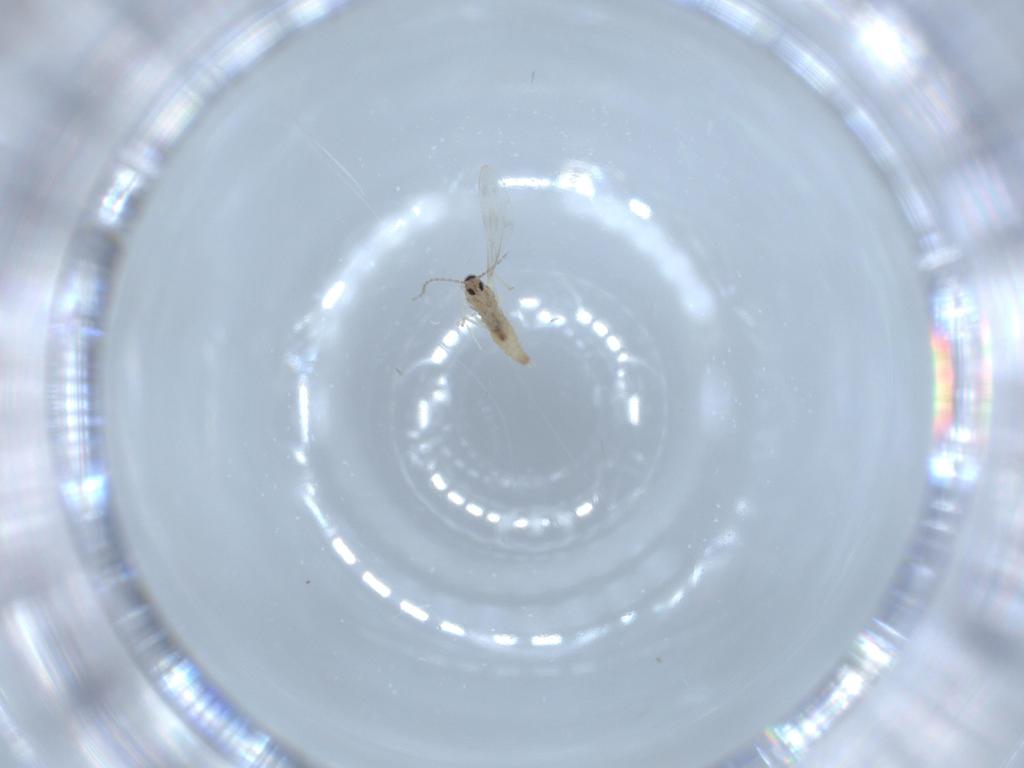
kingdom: Animalia
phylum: Arthropoda
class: Insecta
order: Diptera
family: Cecidomyiidae
